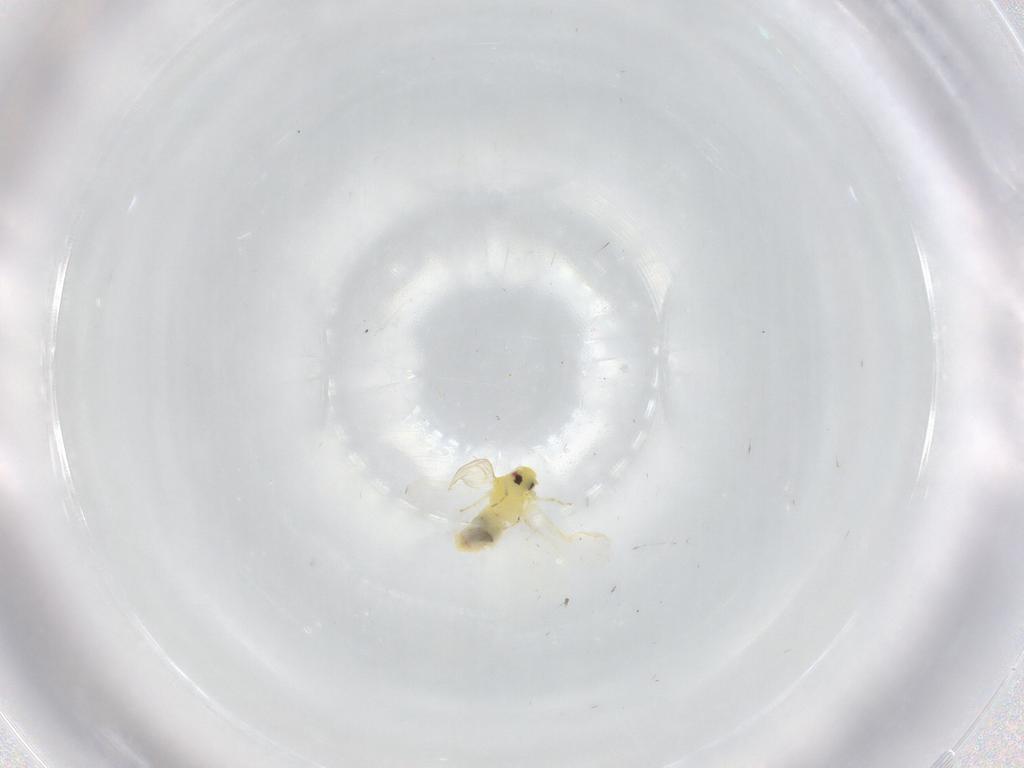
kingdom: Animalia
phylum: Arthropoda
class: Insecta
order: Hemiptera
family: Aleyrodidae
